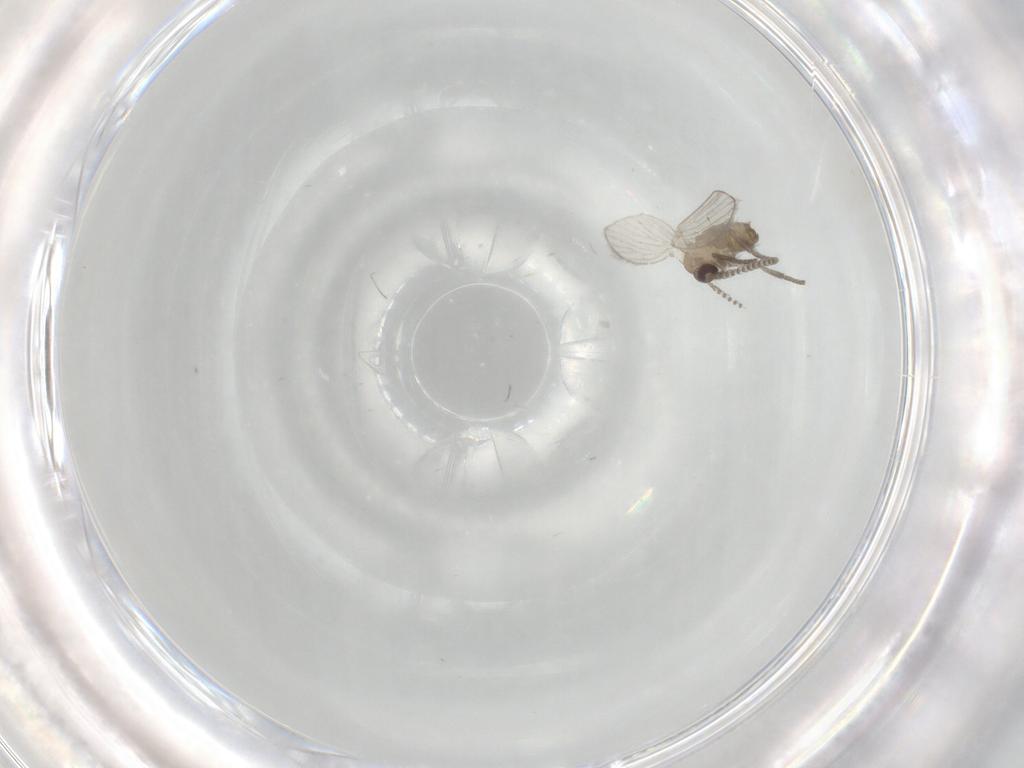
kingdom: Animalia
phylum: Arthropoda
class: Insecta
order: Diptera
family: Psychodidae
